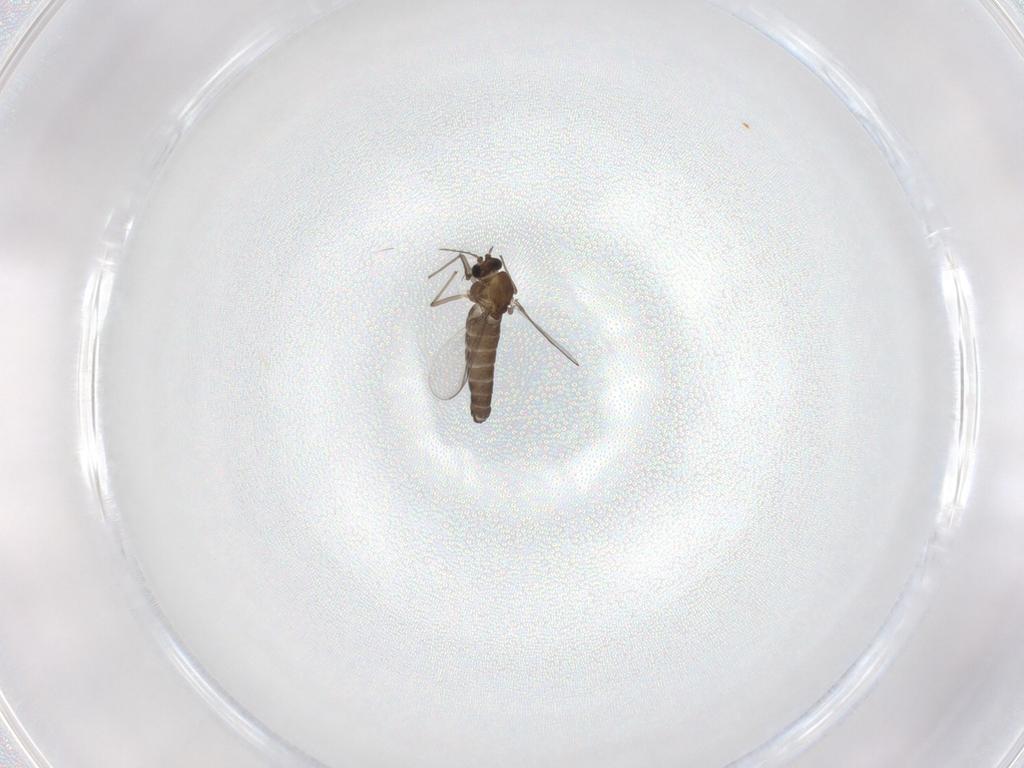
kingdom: Animalia
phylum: Arthropoda
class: Insecta
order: Diptera
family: Chironomidae
